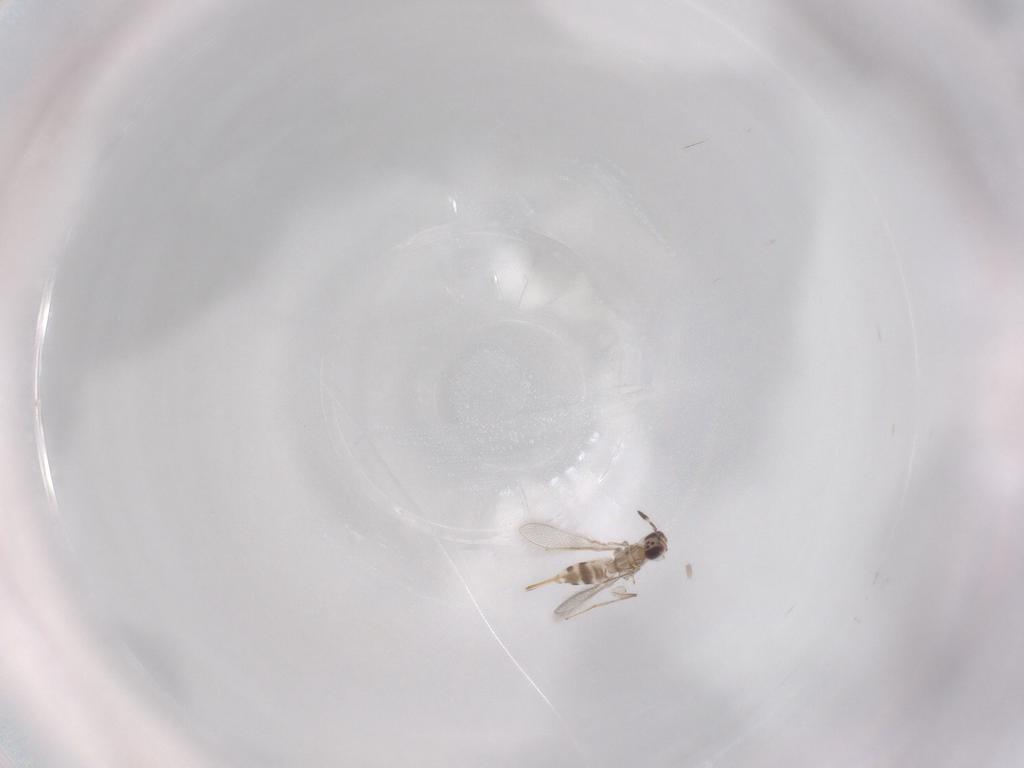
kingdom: Animalia
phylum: Arthropoda
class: Insecta
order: Hymenoptera
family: Mymaridae
